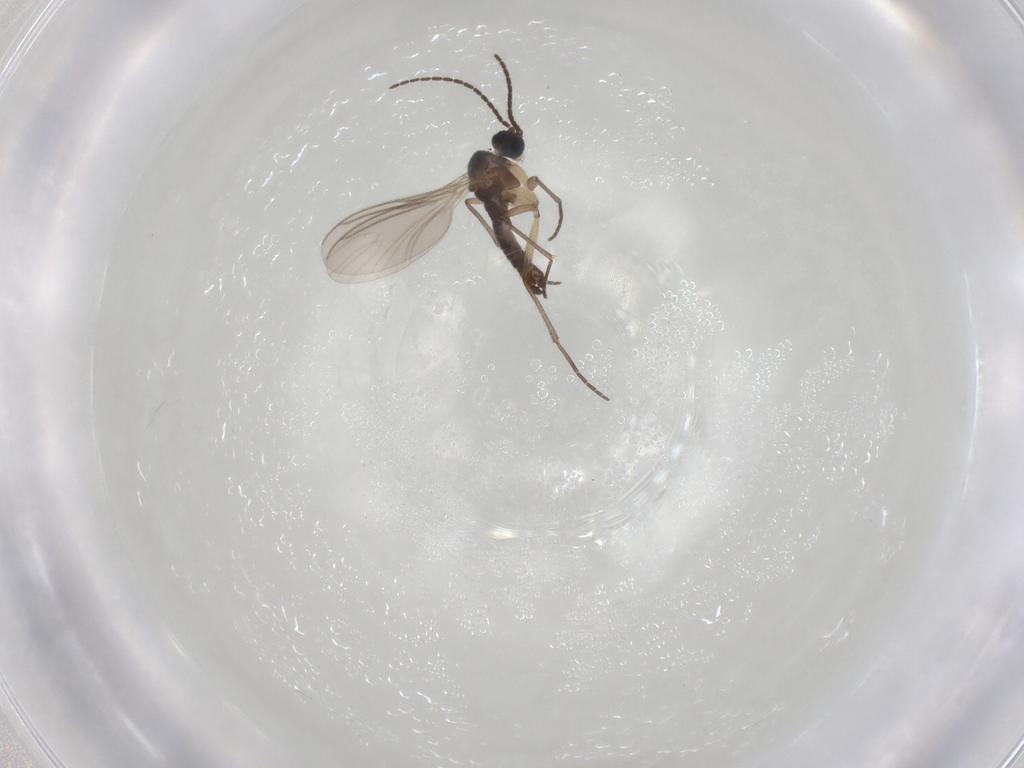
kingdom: Animalia
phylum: Arthropoda
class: Insecta
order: Diptera
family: Sciaridae
